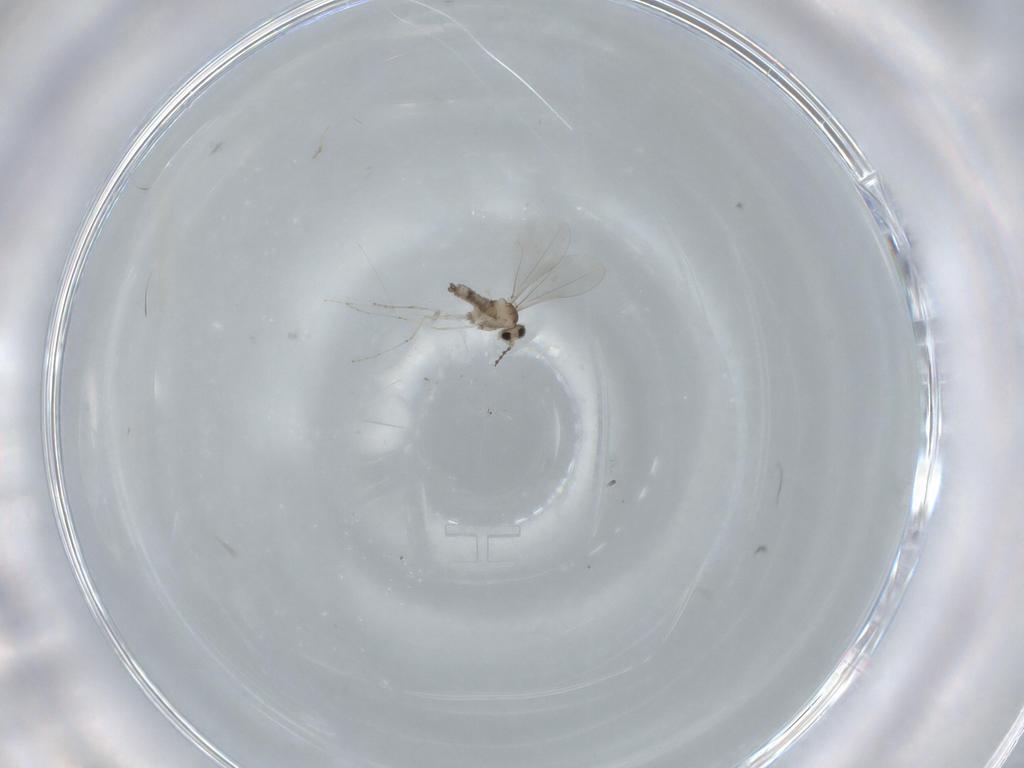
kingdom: Animalia
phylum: Arthropoda
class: Insecta
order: Diptera
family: Cecidomyiidae
